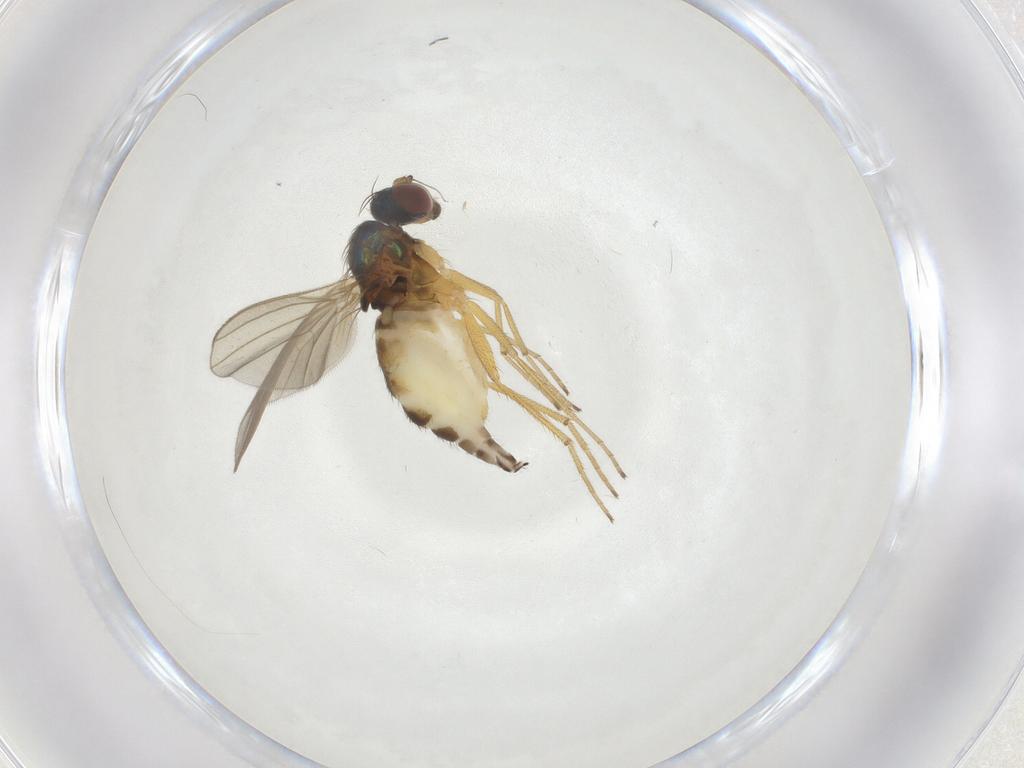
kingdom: Animalia
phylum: Arthropoda
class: Insecta
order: Diptera
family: Dolichopodidae
